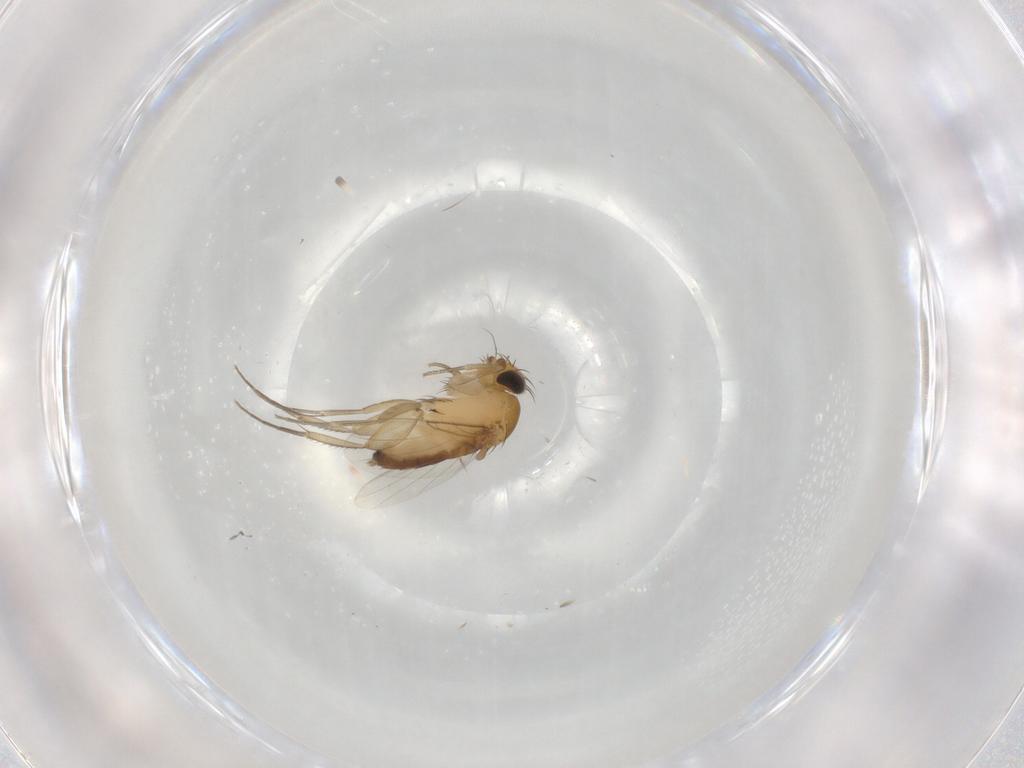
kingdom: Animalia
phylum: Arthropoda
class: Insecta
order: Diptera
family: Phoridae
